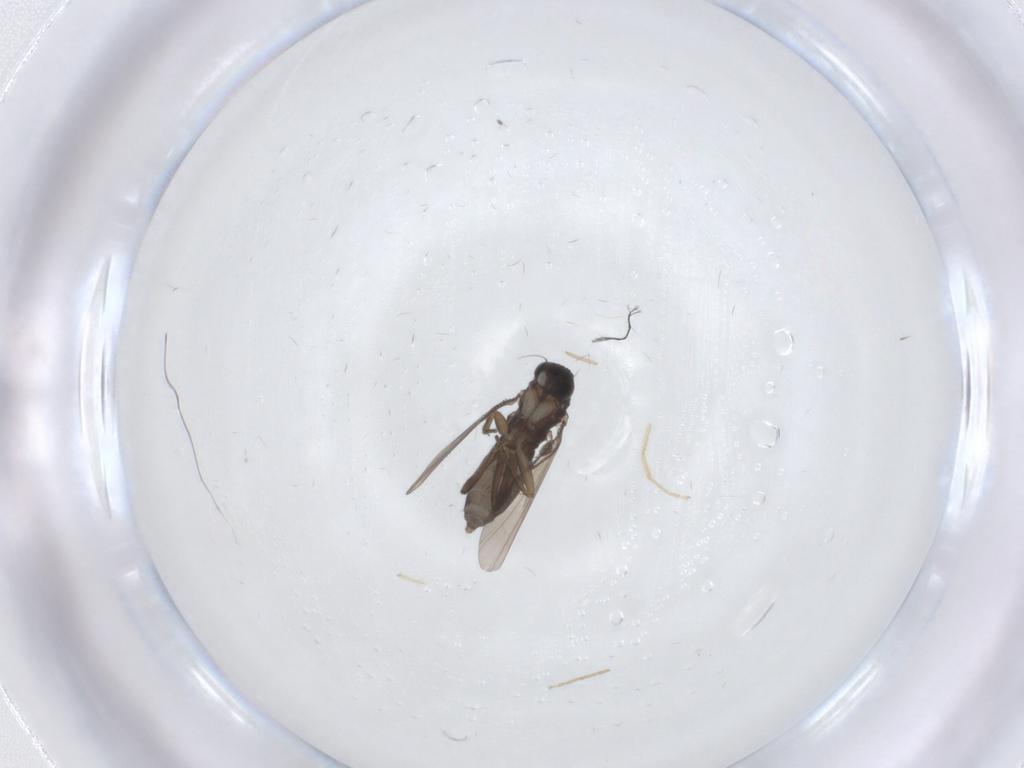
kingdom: Animalia
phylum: Arthropoda
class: Insecta
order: Diptera
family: Phoridae
